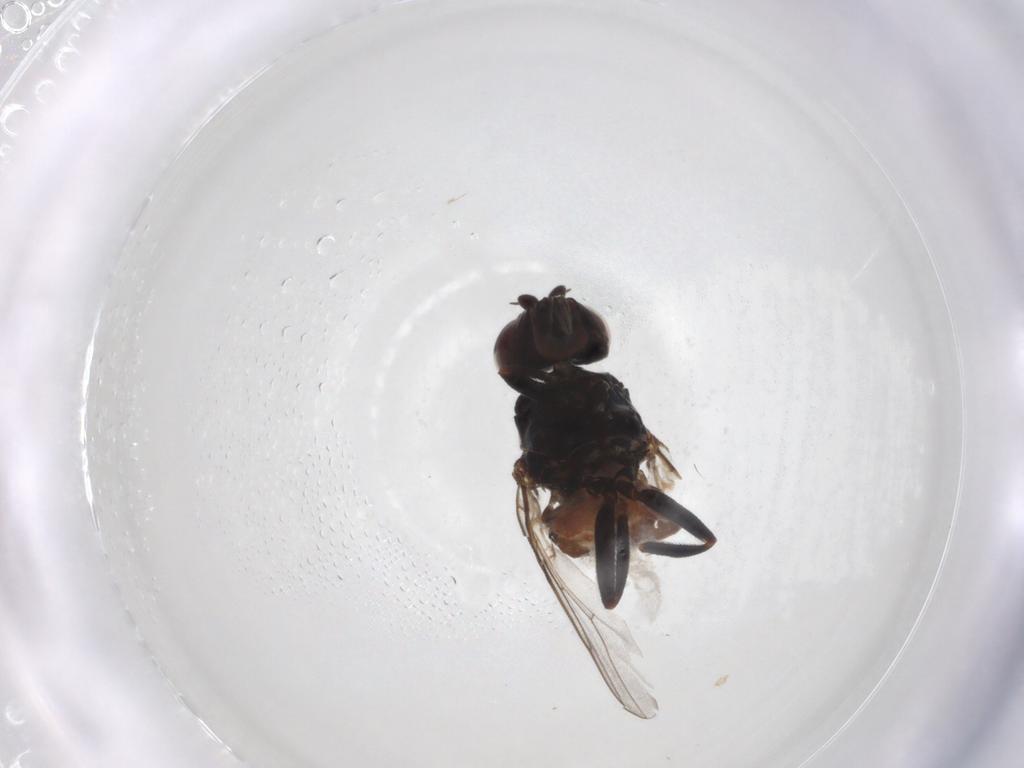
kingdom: Animalia
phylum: Arthropoda
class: Insecta
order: Diptera
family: Chloropidae
